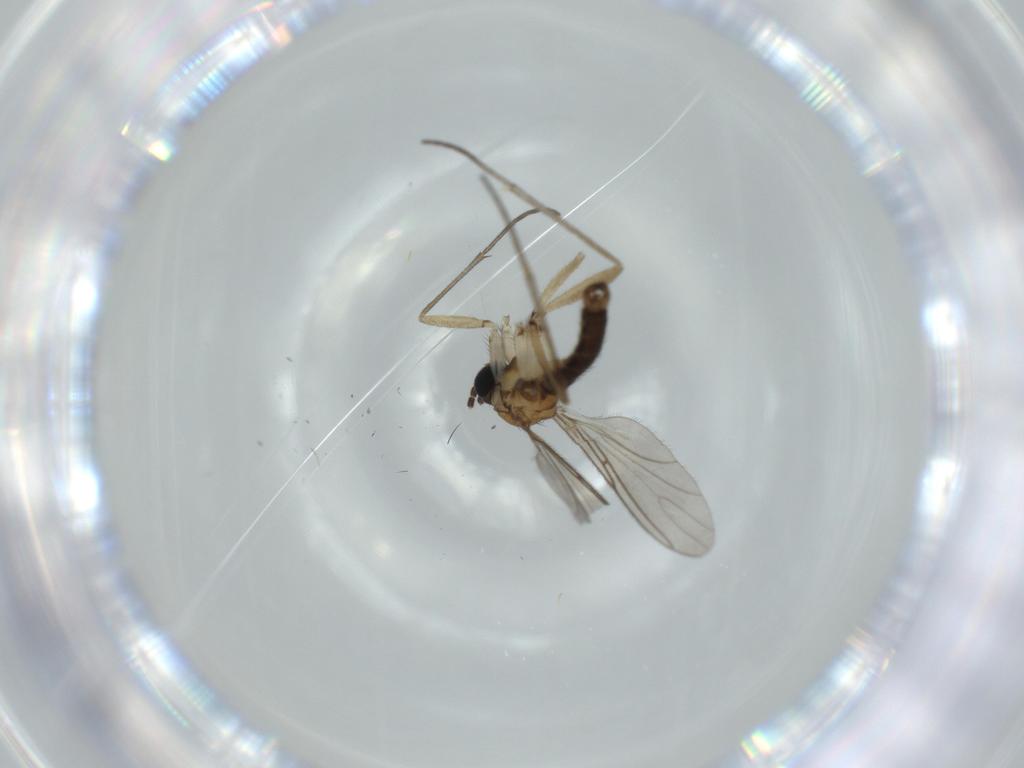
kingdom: Animalia
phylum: Arthropoda
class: Insecta
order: Diptera
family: Sciaridae
